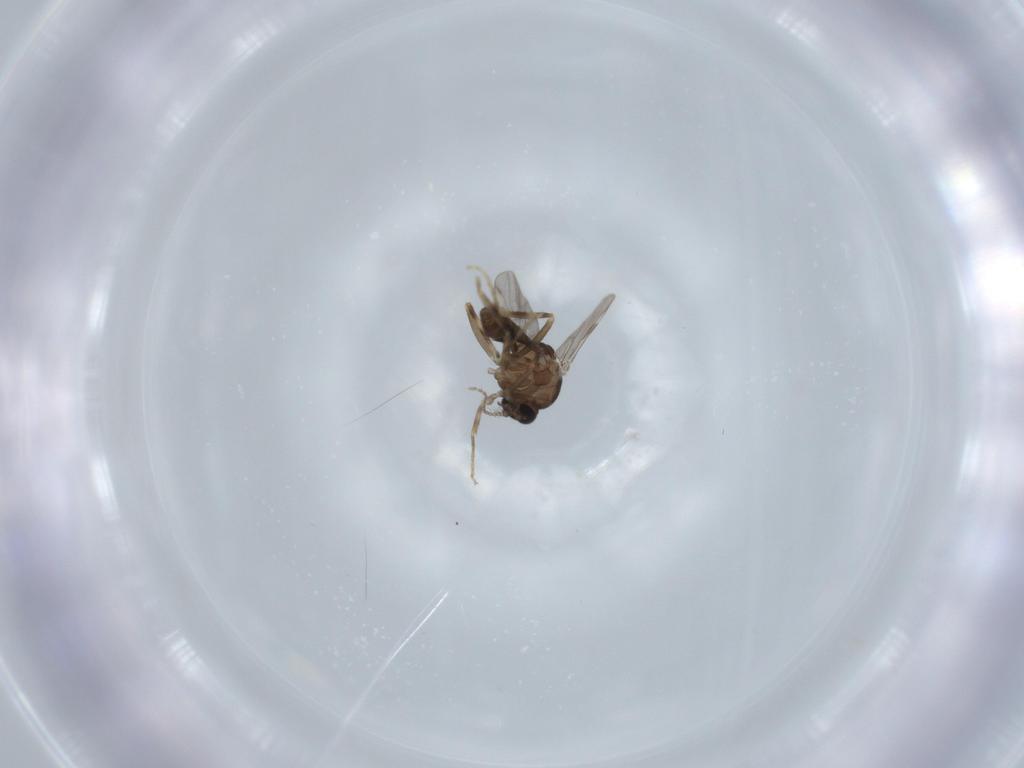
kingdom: Animalia
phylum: Arthropoda
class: Insecta
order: Diptera
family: Ceratopogonidae
